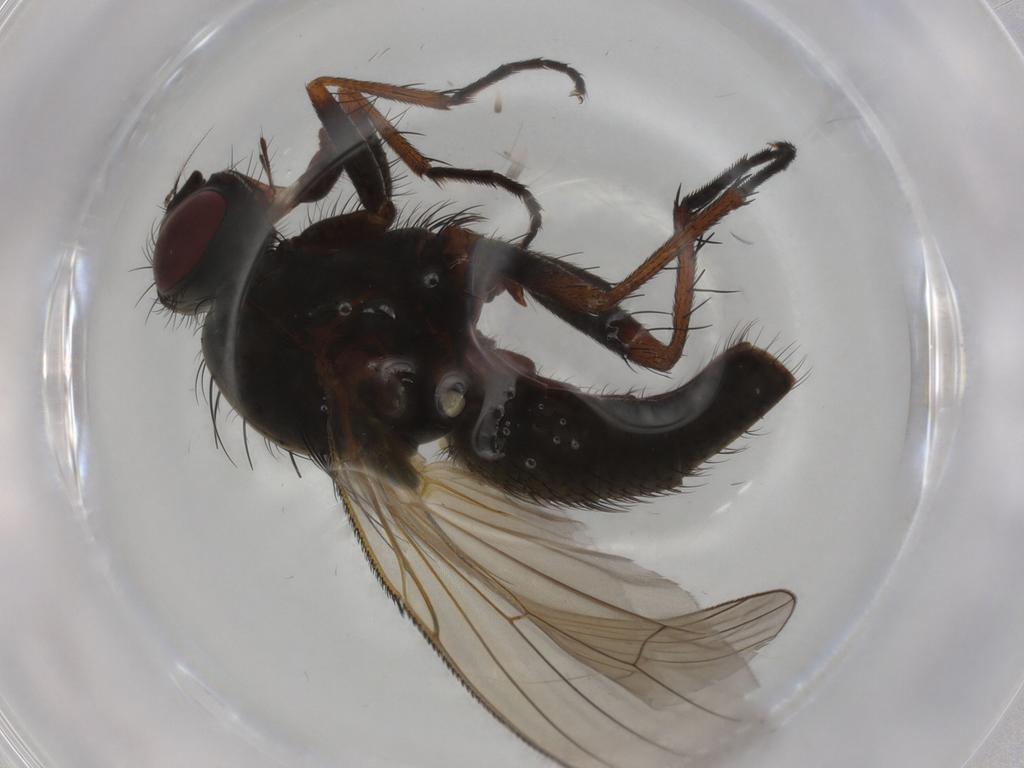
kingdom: Animalia
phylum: Arthropoda
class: Insecta
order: Diptera
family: Anthomyiidae
